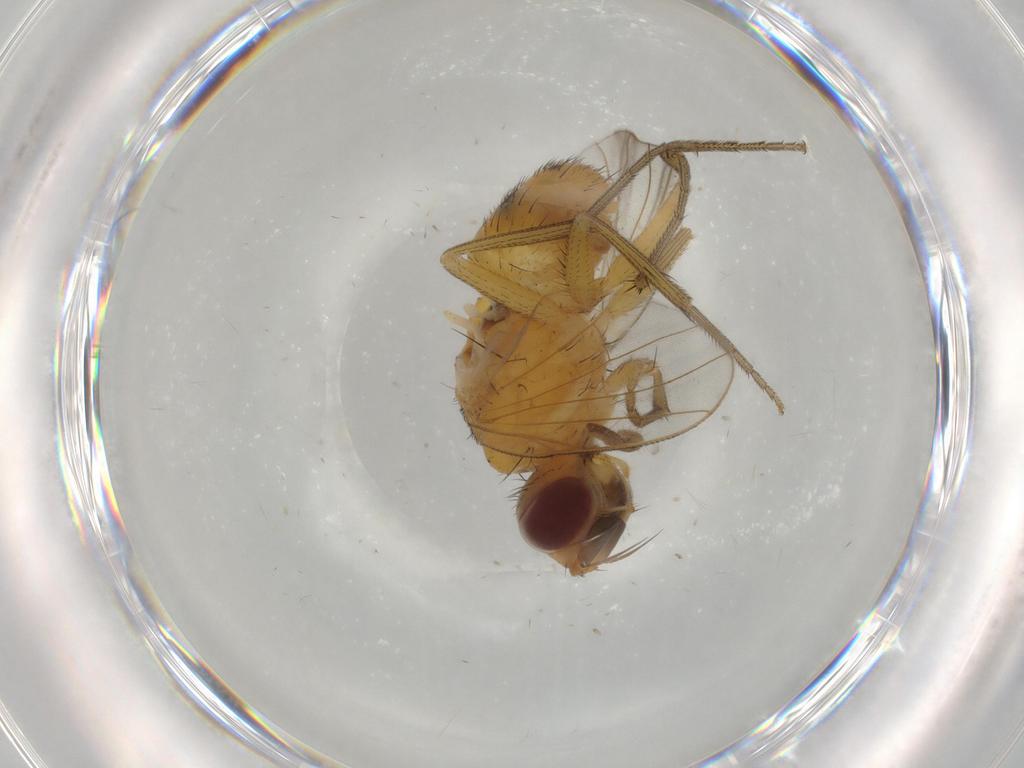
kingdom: Animalia
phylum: Arthropoda
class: Insecta
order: Diptera
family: Muscidae
